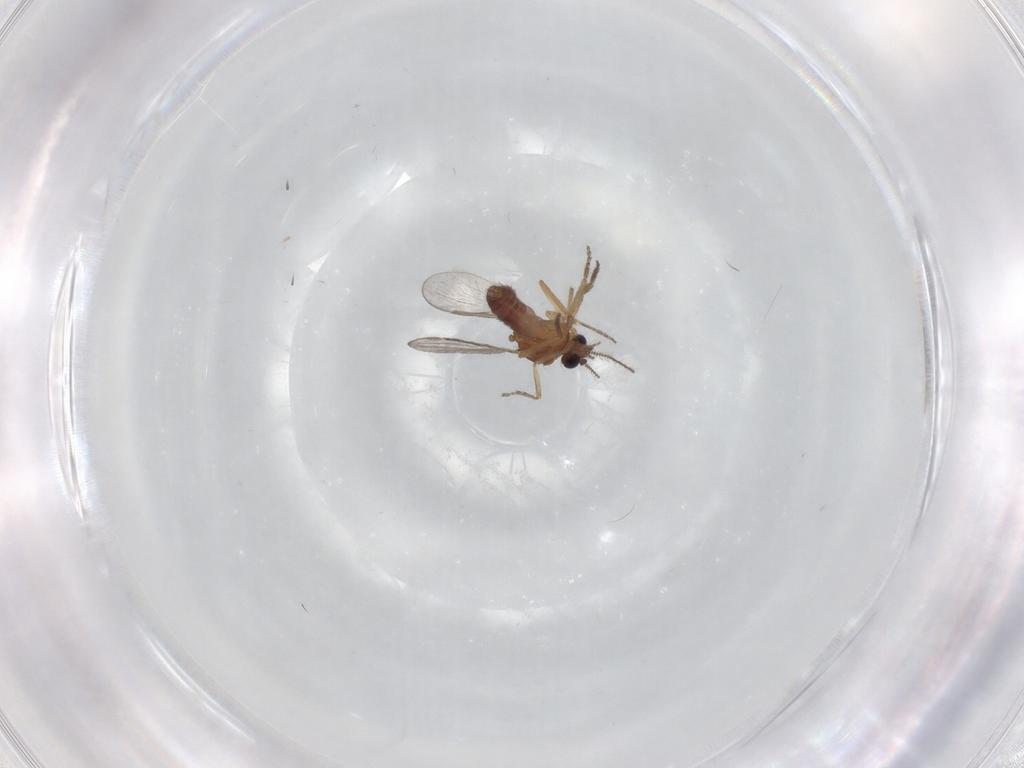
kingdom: Animalia
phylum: Arthropoda
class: Insecta
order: Diptera
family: Ceratopogonidae
